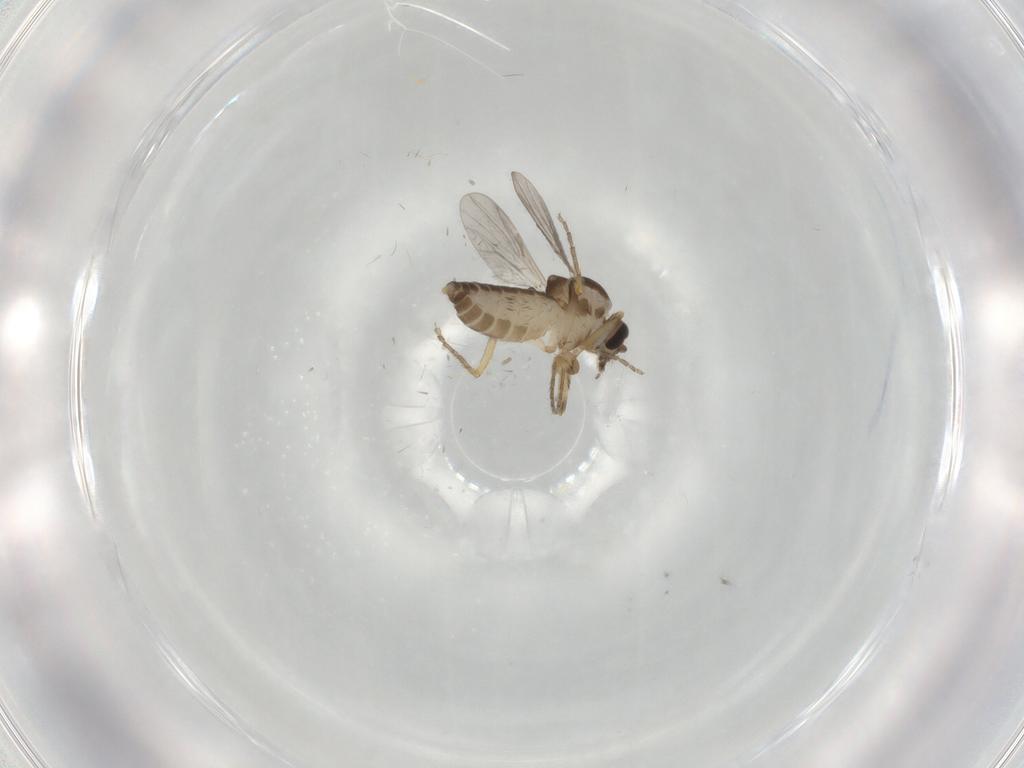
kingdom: Animalia
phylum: Arthropoda
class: Insecta
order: Diptera
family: Ceratopogonidae
